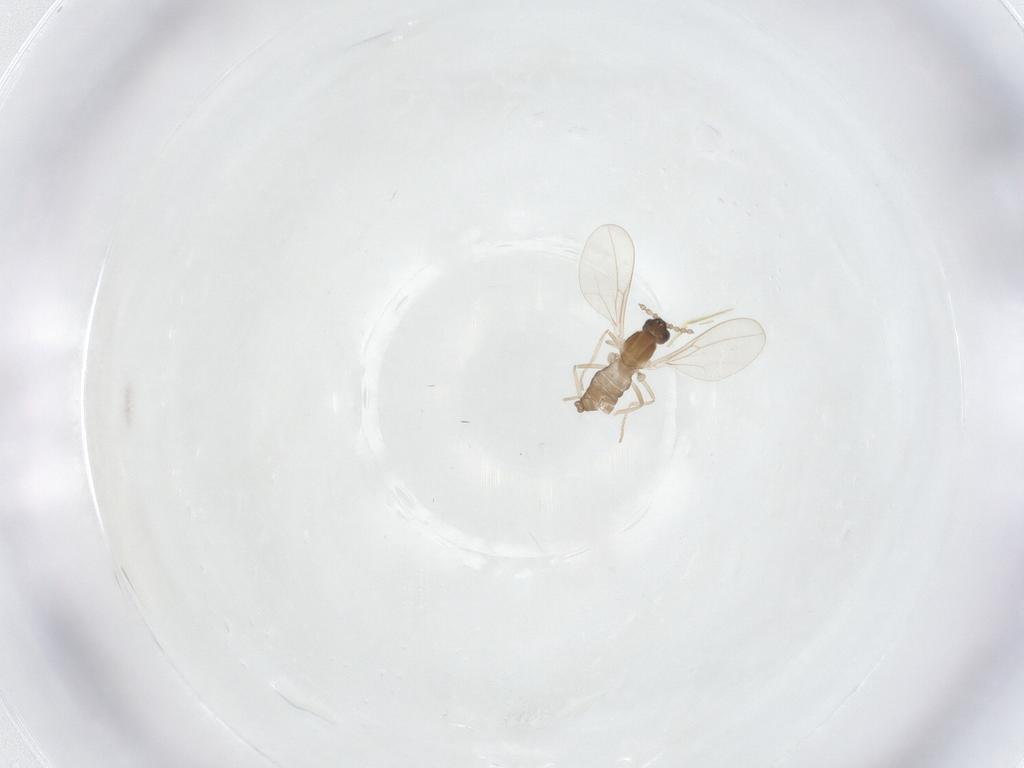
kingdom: Animalia
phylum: Arthropoda
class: Insecta
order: Diptera
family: Cecidomyiidae
